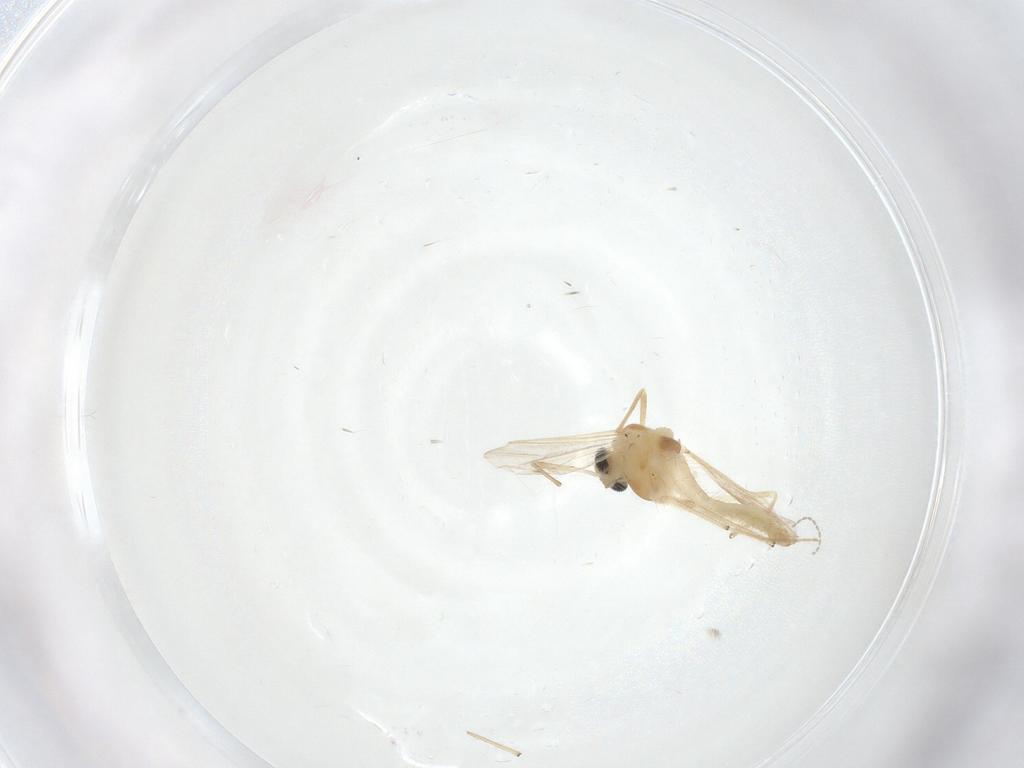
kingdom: Animalia
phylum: Arthropoda
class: Insecta
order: Diptera
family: Chironomidae
